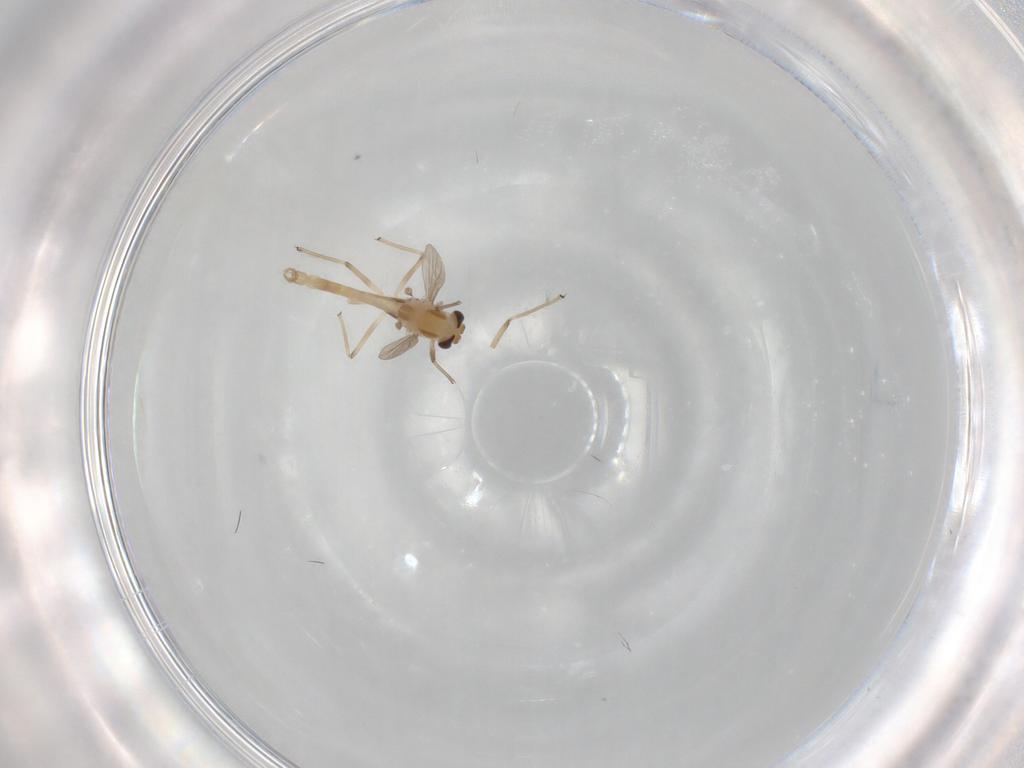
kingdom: Animalia
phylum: Arthropoda
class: Insecta
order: Diptera
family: Chironomidae
